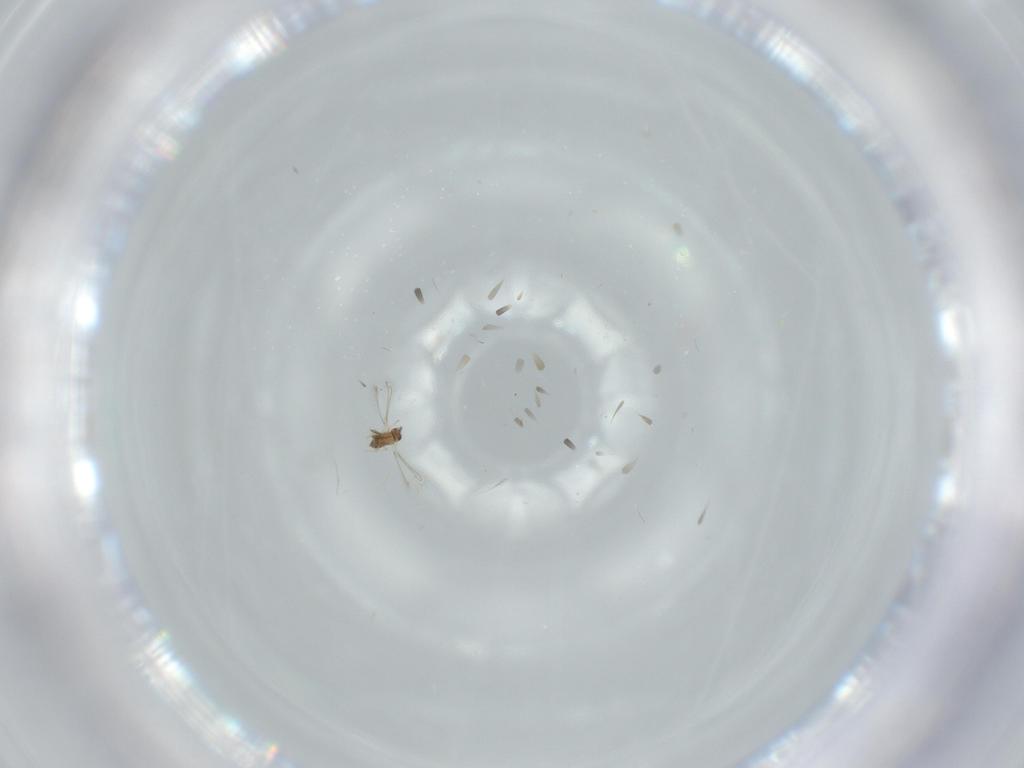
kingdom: Animalia
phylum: Arthropoda
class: Insecta
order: Hymenoptera
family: Mymaridae
